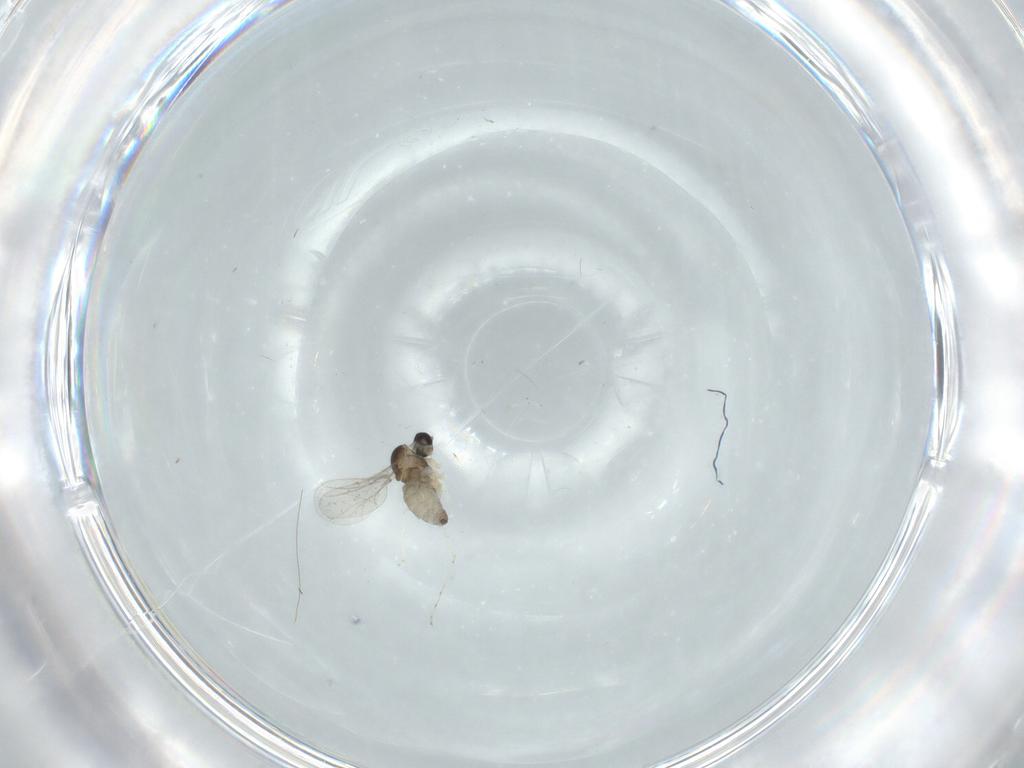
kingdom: Animalia
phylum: Arthropoda
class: Insecta
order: Diptera
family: Cecidomyiidae
